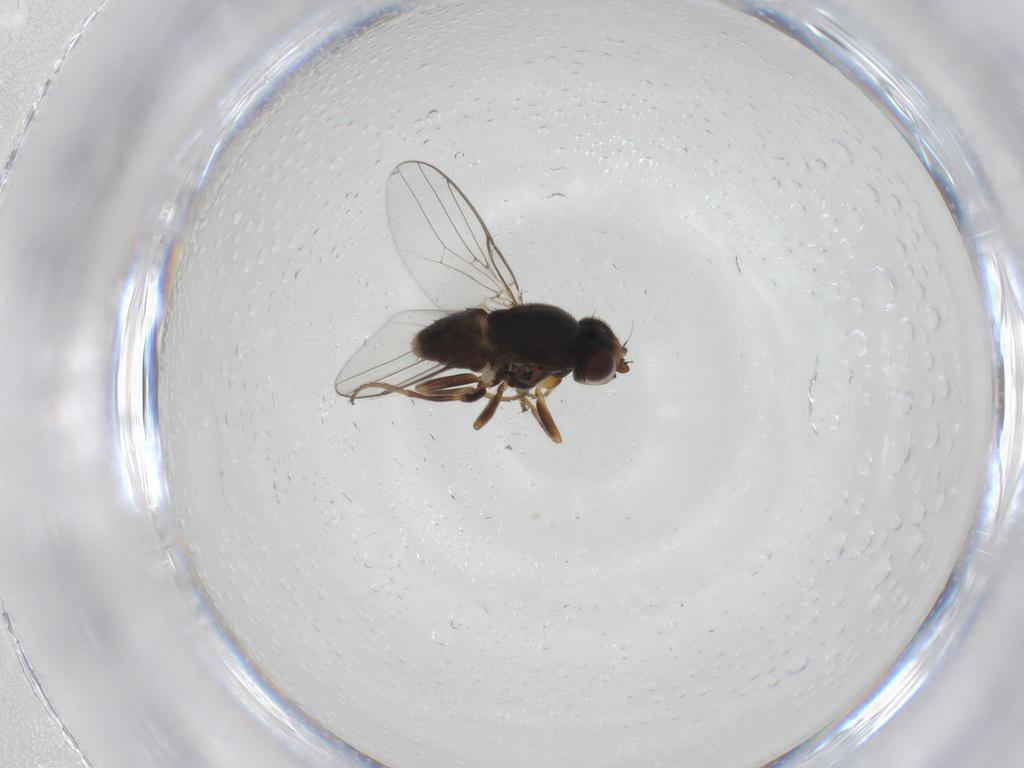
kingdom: Animalia
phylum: Arthropoda
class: Insecta
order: Diptera
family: Chloropidae
